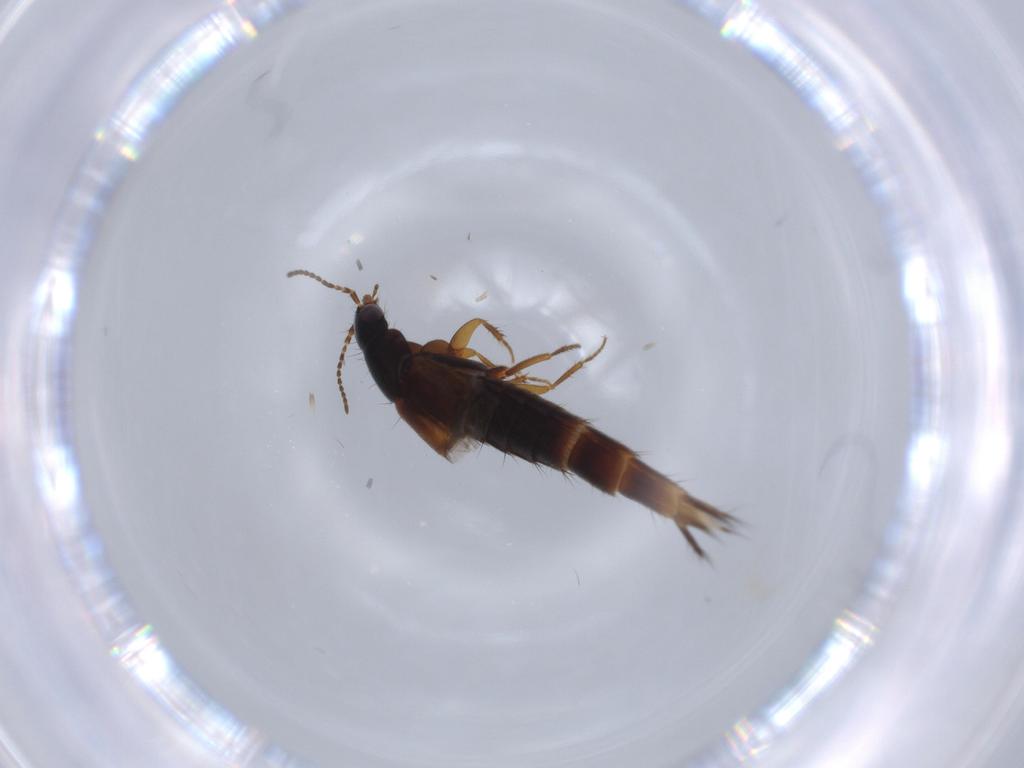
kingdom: Animalia
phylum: Arthropoda
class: Insecta
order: Coleoptera
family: Staphylinidae
